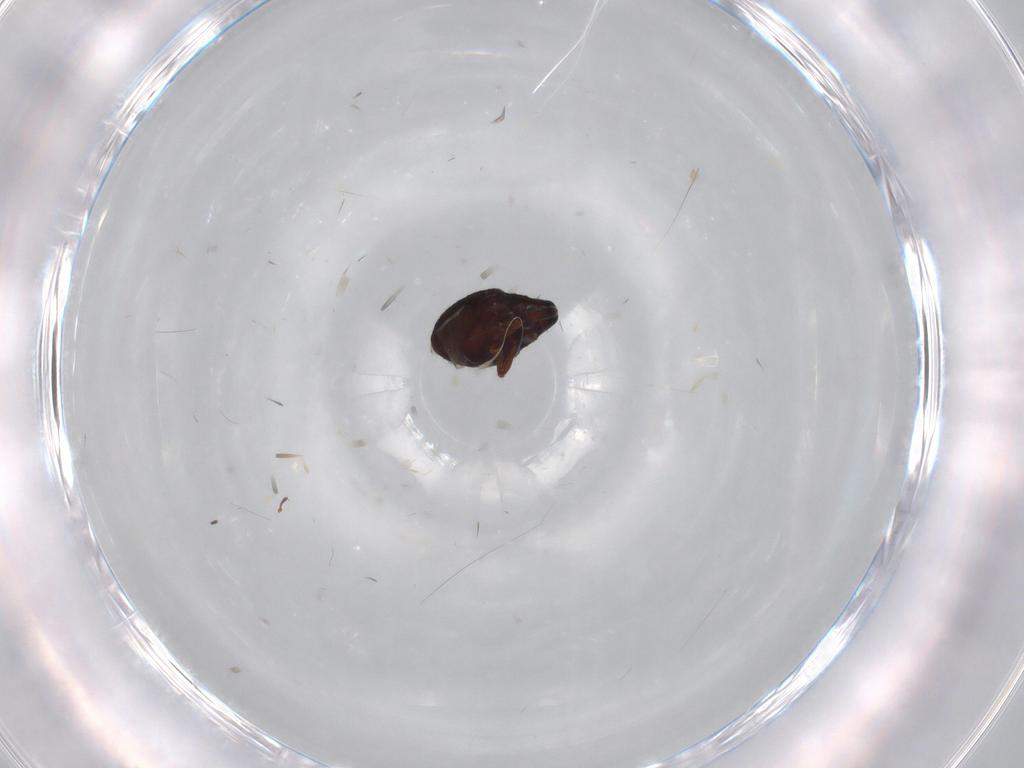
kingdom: Animalia
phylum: Arthropoda
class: Insecta
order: Coleoptera
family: Curculionidae
